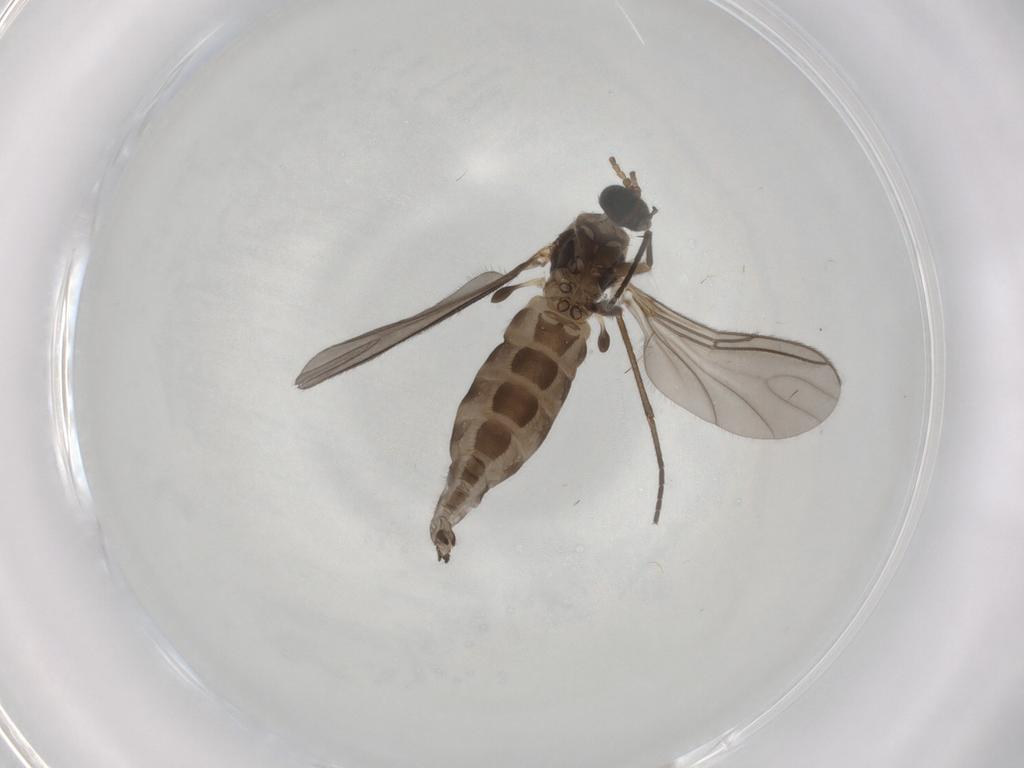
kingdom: Animalia
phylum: Arthropoda
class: Insecta
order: Diptera
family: Sciaridae
